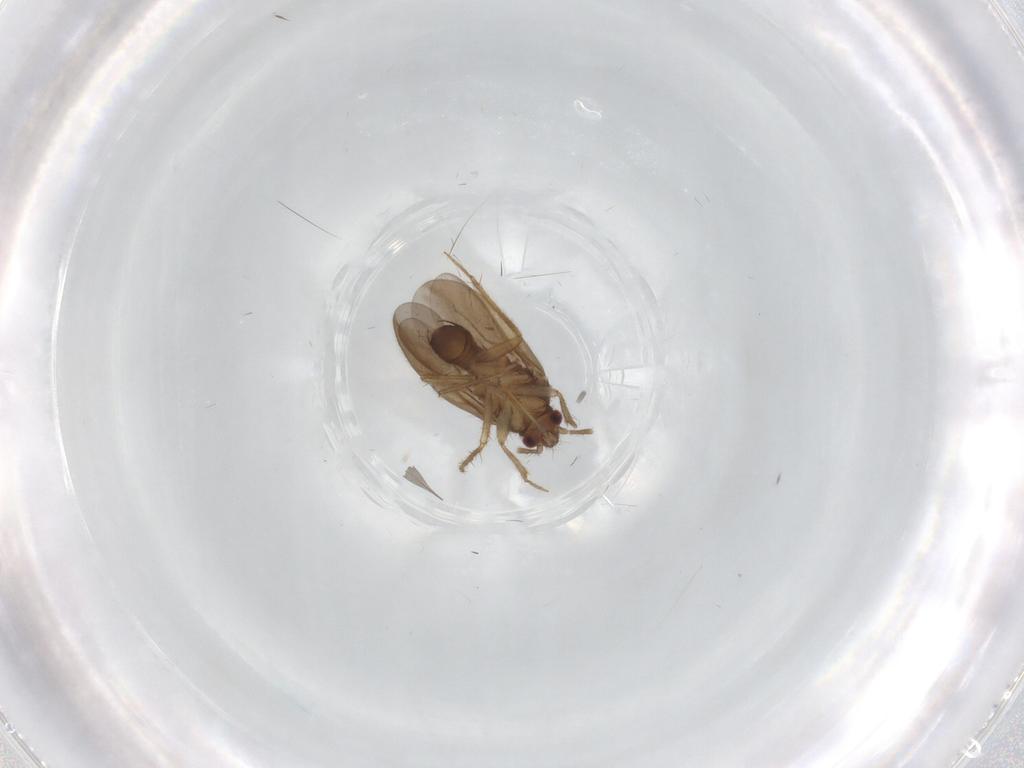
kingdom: Animalia
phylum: Arthropoda
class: Insecta
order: Hemiptera
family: Ceratocombidae
